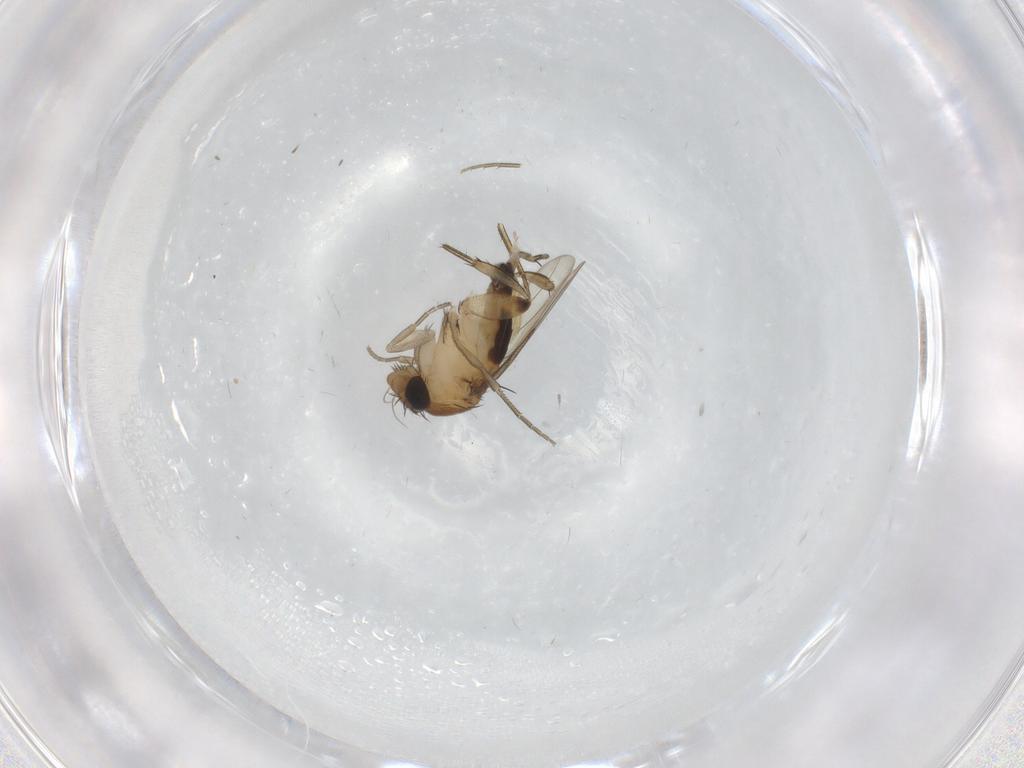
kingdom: Animalia
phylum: Arthropoda
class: Insecta
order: Diptera
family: Phoridae
